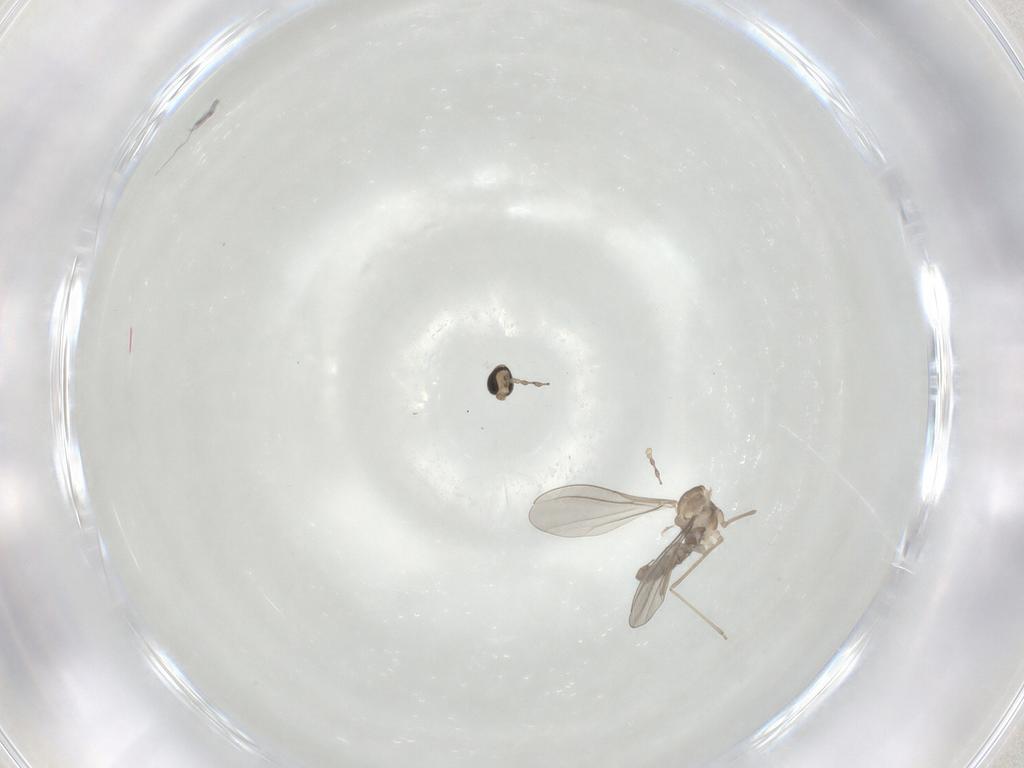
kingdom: Animalia
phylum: Arthropoda
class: Insecta
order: Diptera
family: Cecidomyiidae
